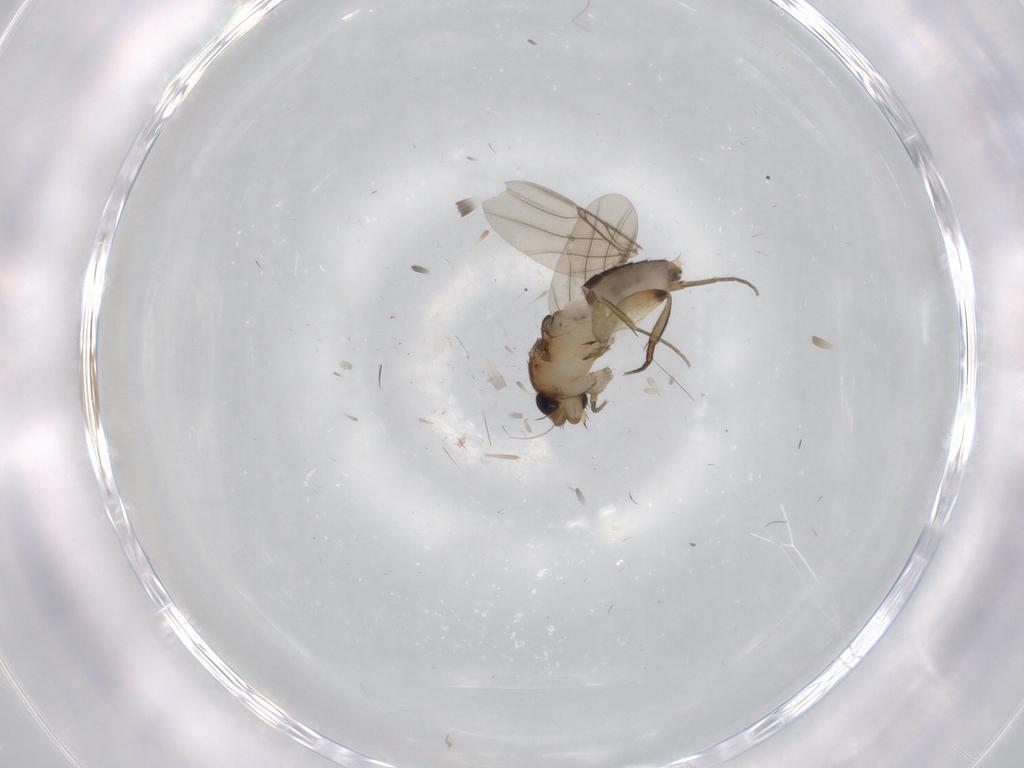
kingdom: Animalia
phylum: Arthropoda
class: Insecta
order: Diptera
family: Phoridae
